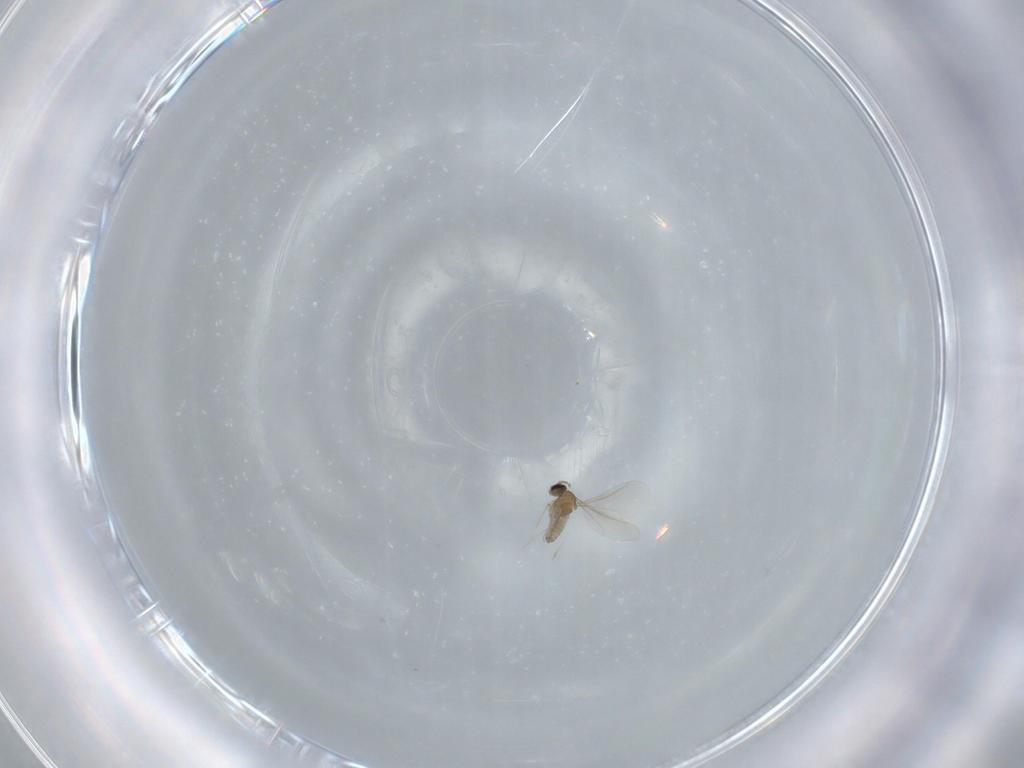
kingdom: Animalia
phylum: Arthropoda
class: Insecta
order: Diptera
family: Cecidomyiidae
